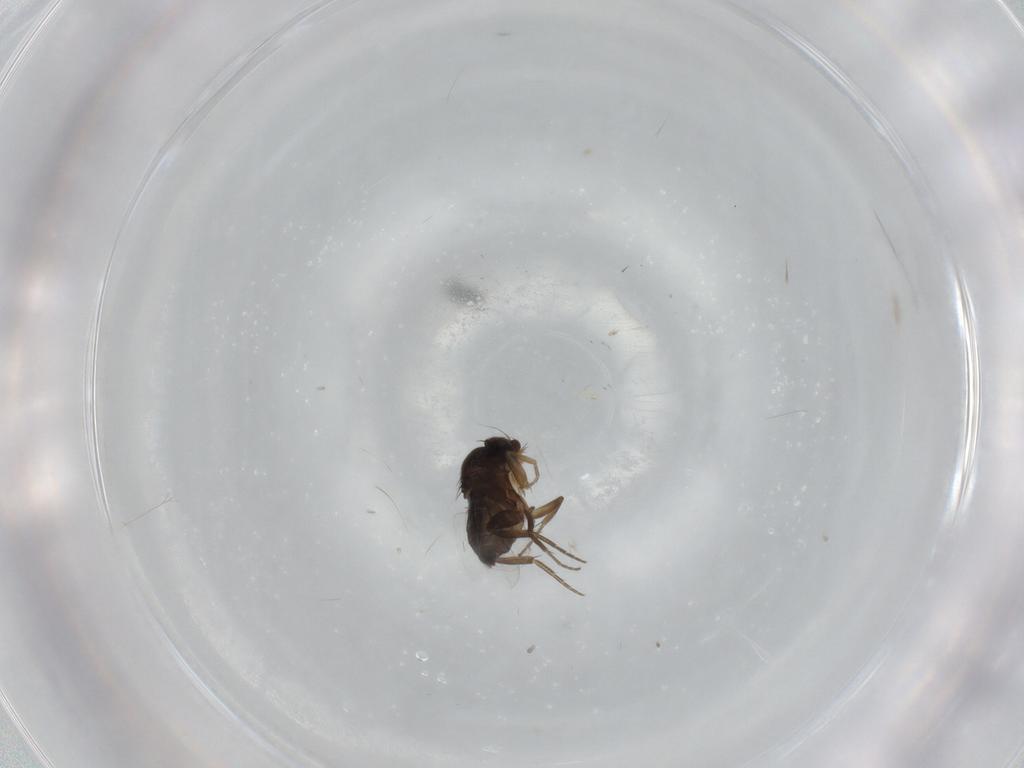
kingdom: Animalia
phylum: Arthropoda
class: Insecta
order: Diptera
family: Phoridae
